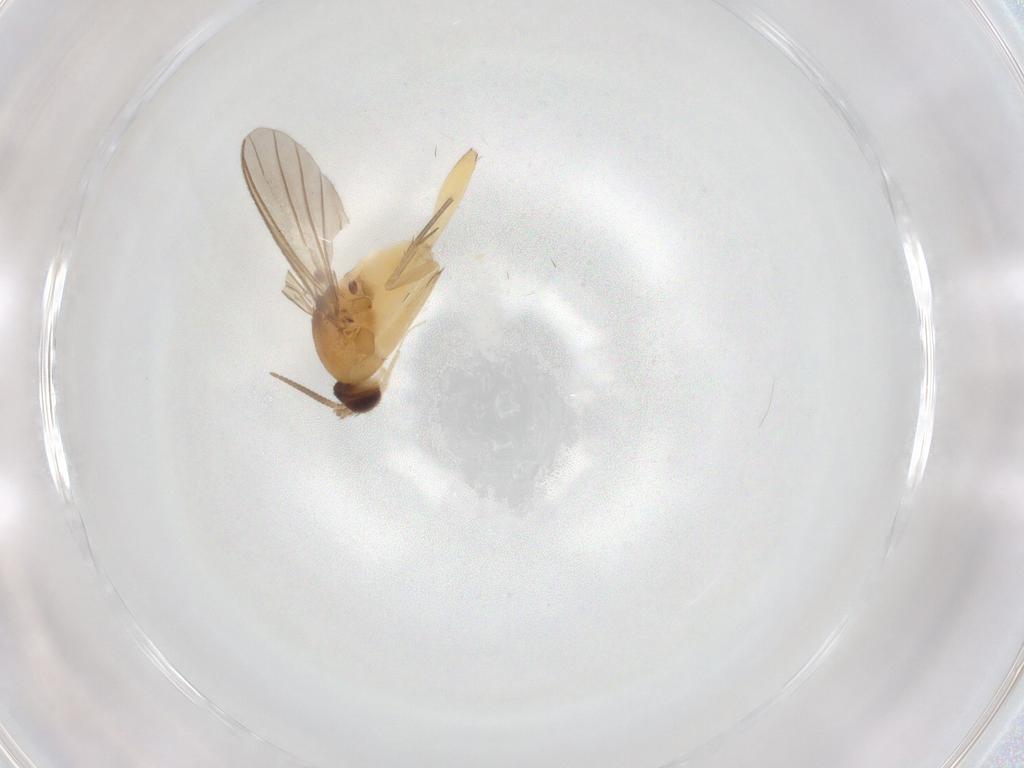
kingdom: Animalia
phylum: Arthropoda
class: Insecta
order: Diptera
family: Mycetophilidae
